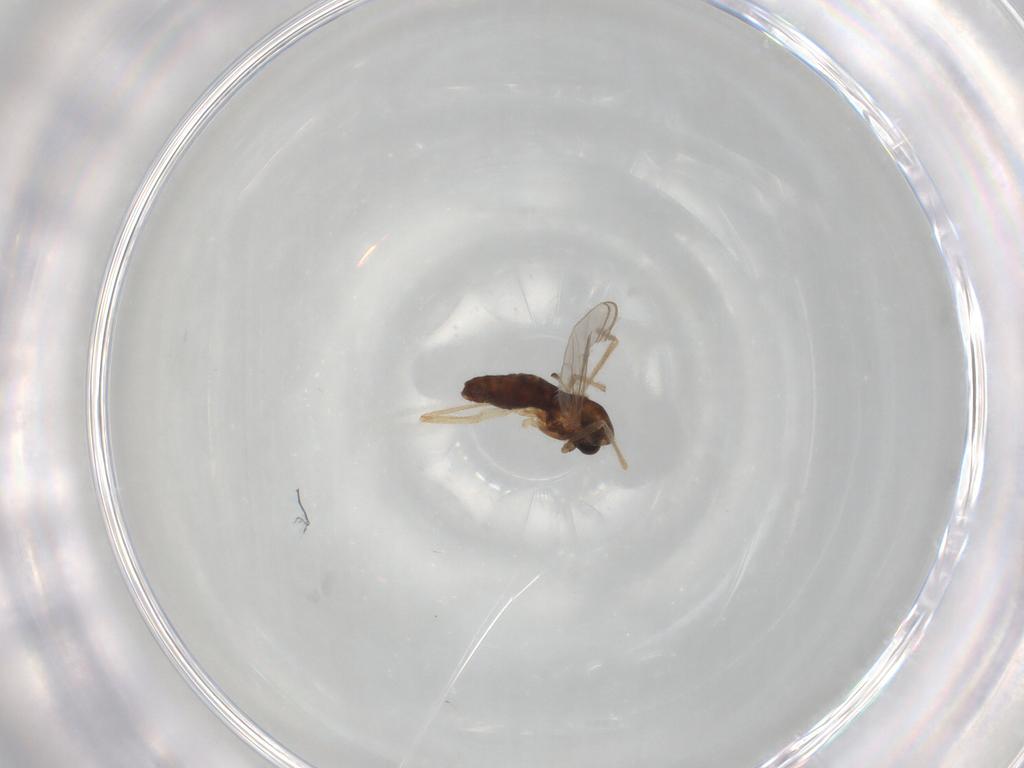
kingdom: Animalia
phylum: Arthropoda
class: Insecta
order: Diptera
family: Chironomidae
